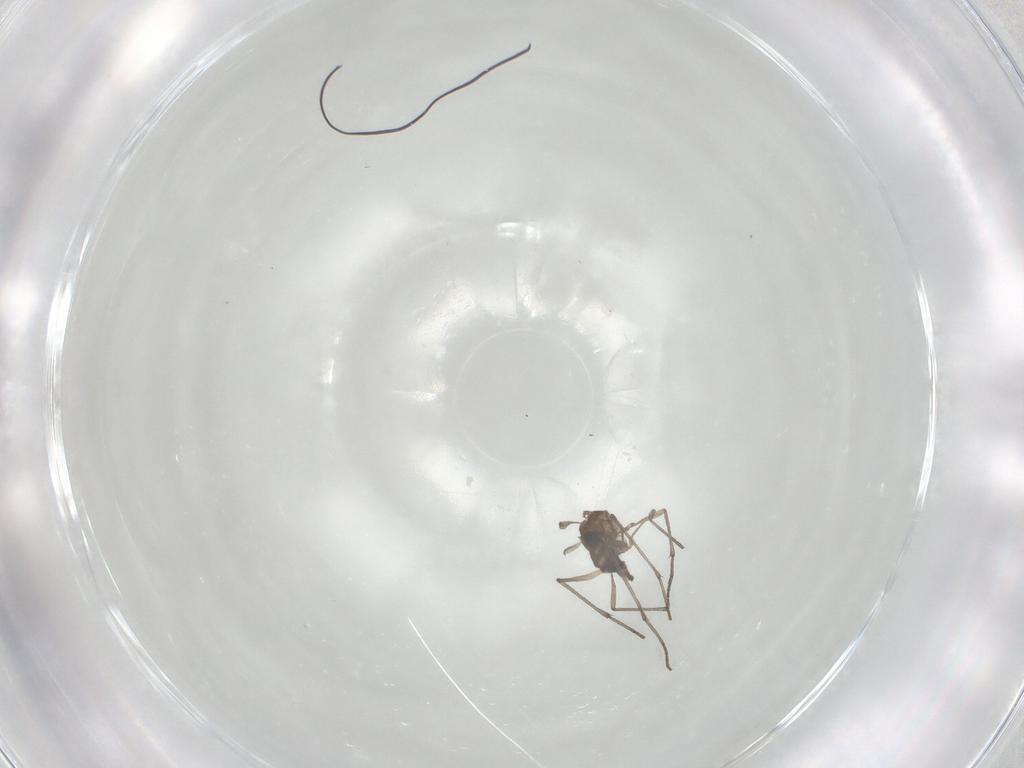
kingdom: Animalia
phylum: Arthropoda
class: Insecta
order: Diptera
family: Sciaridae
